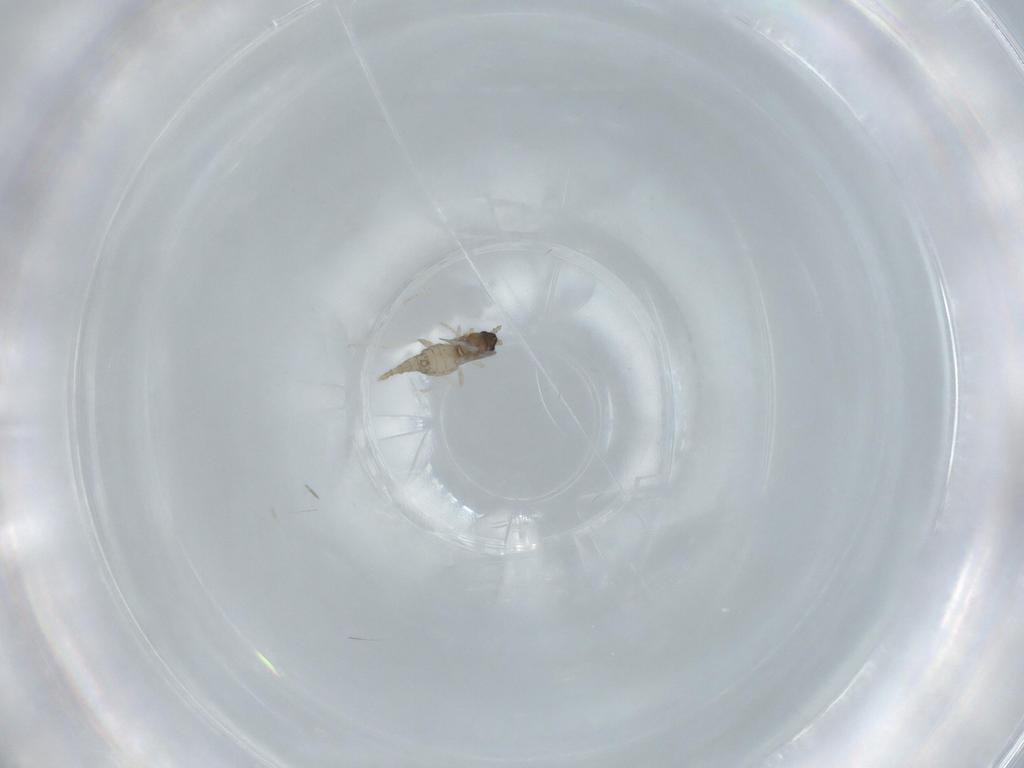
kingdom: Animalia
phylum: Arthropoda
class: Insecta
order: Diptera
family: Cecidomyiidae
